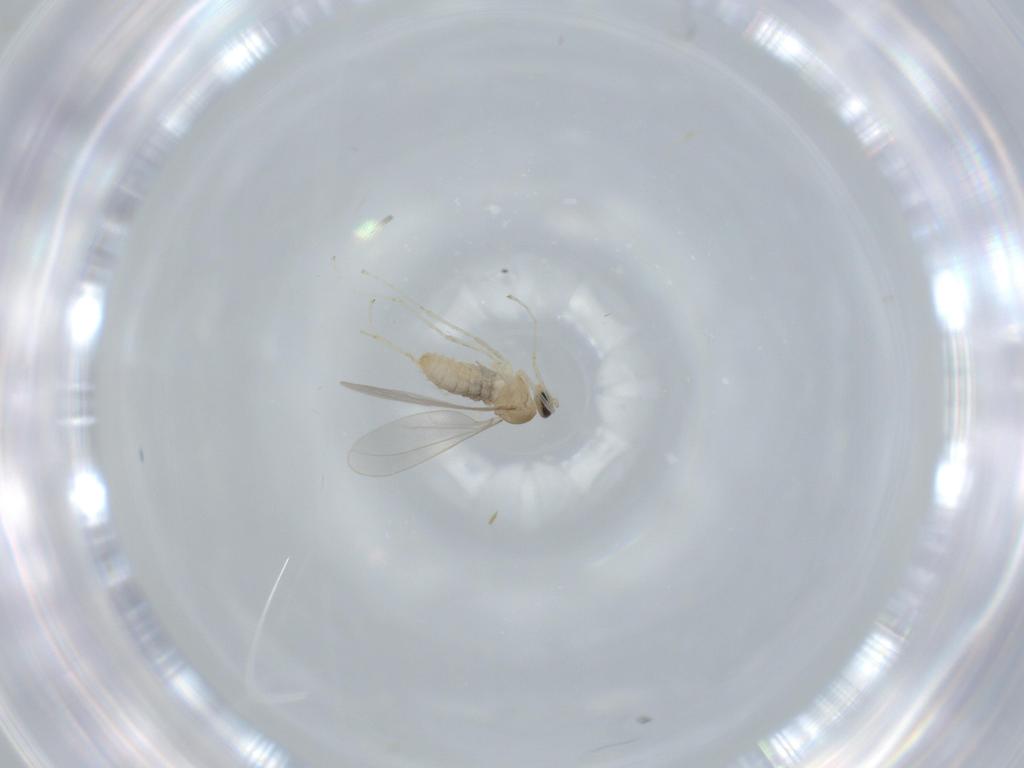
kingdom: Animalia
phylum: Arthropoda
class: Insecta
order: Diptera
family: Cecidomyiidae
